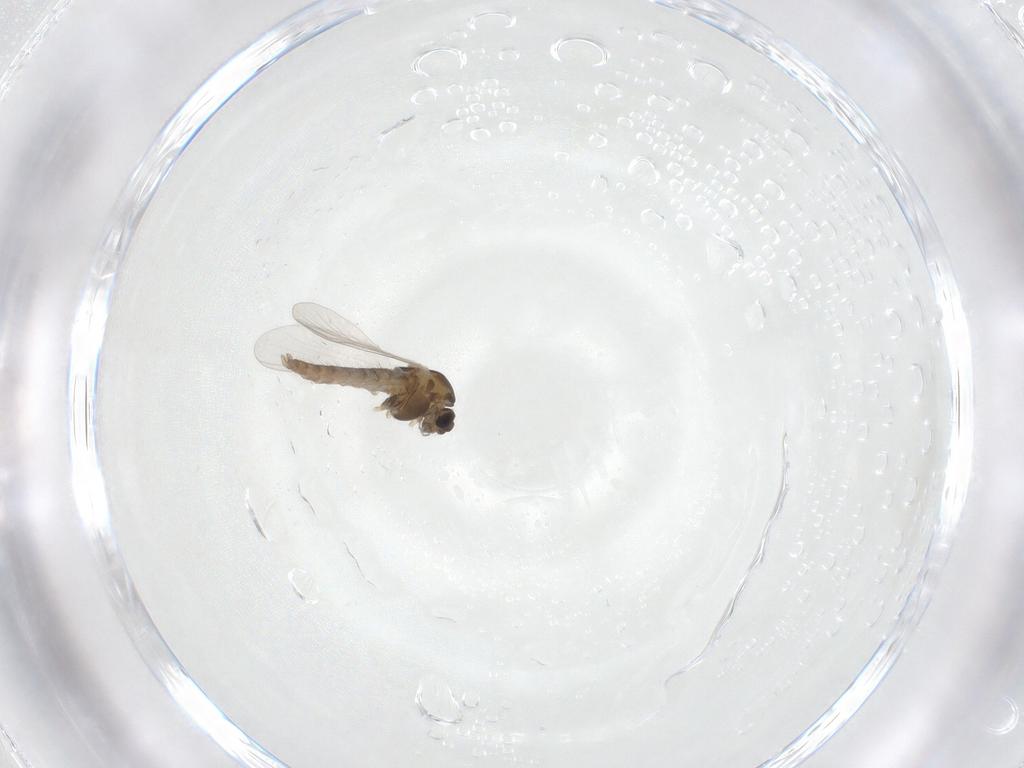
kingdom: Animalia
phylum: Arthropoda
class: Insecta
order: Diptera
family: Chironomidae
